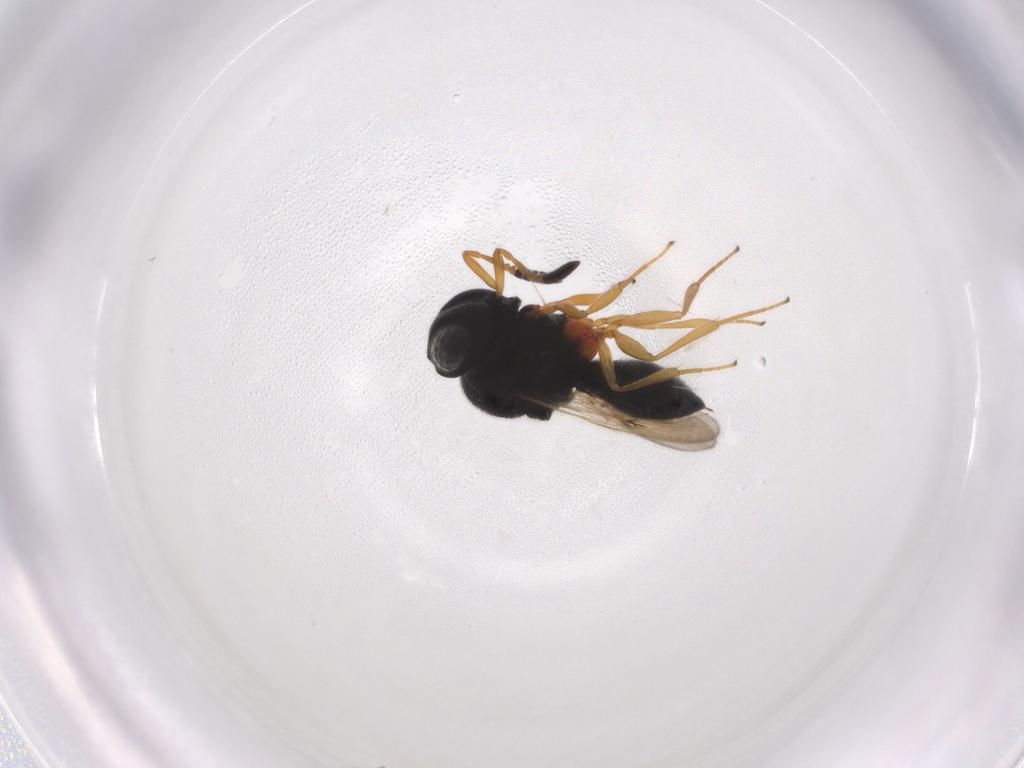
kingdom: Animalia
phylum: Arthropoda
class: Insecta
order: Hymenoptera
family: Scelionidae
